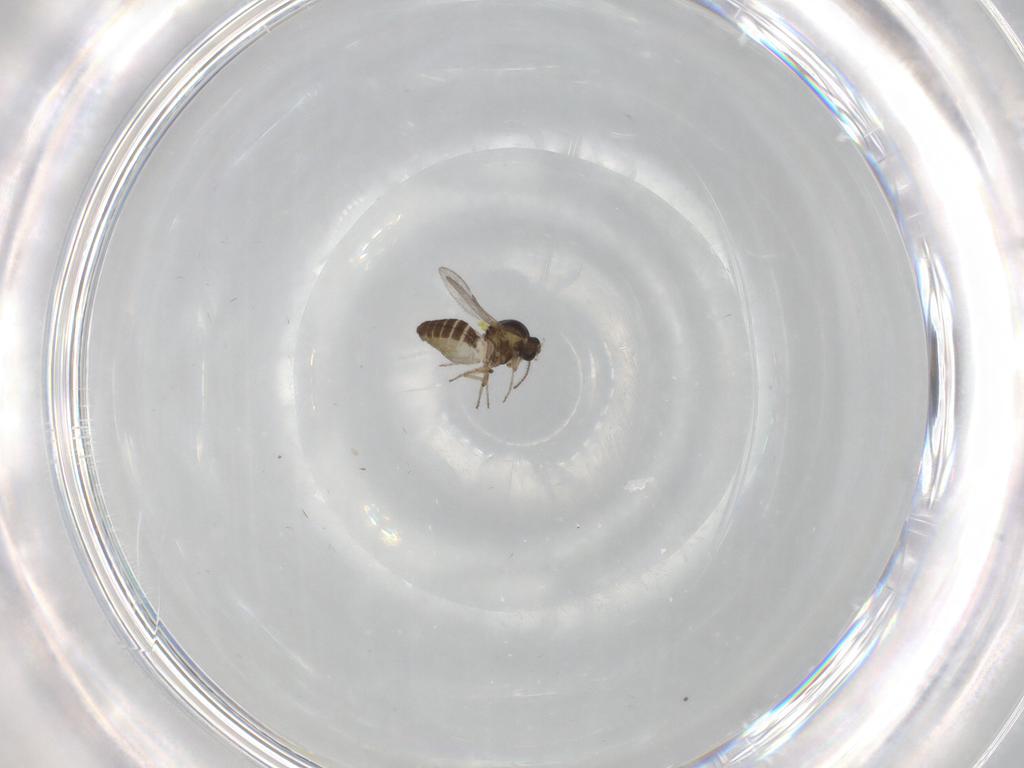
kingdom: Animalia
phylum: Arthropoda
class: Insecta
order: Diptera
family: Ceratopogonidae
